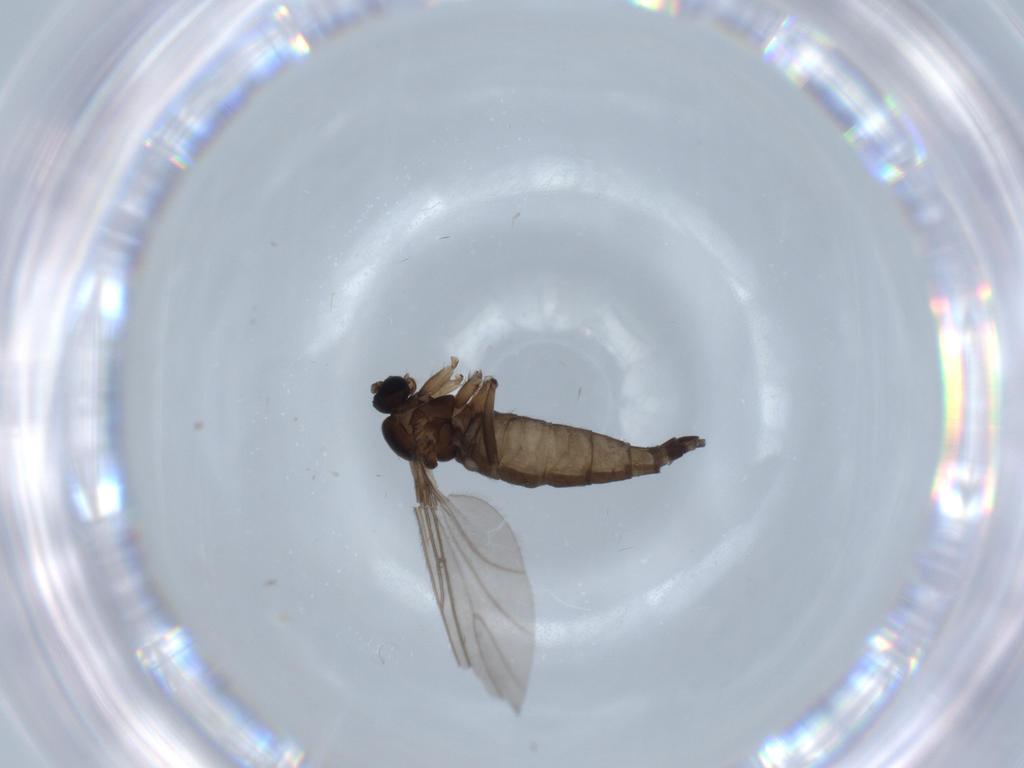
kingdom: Animalia
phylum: Arthropoda
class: Insecta
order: Diptera
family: Sciaridae
